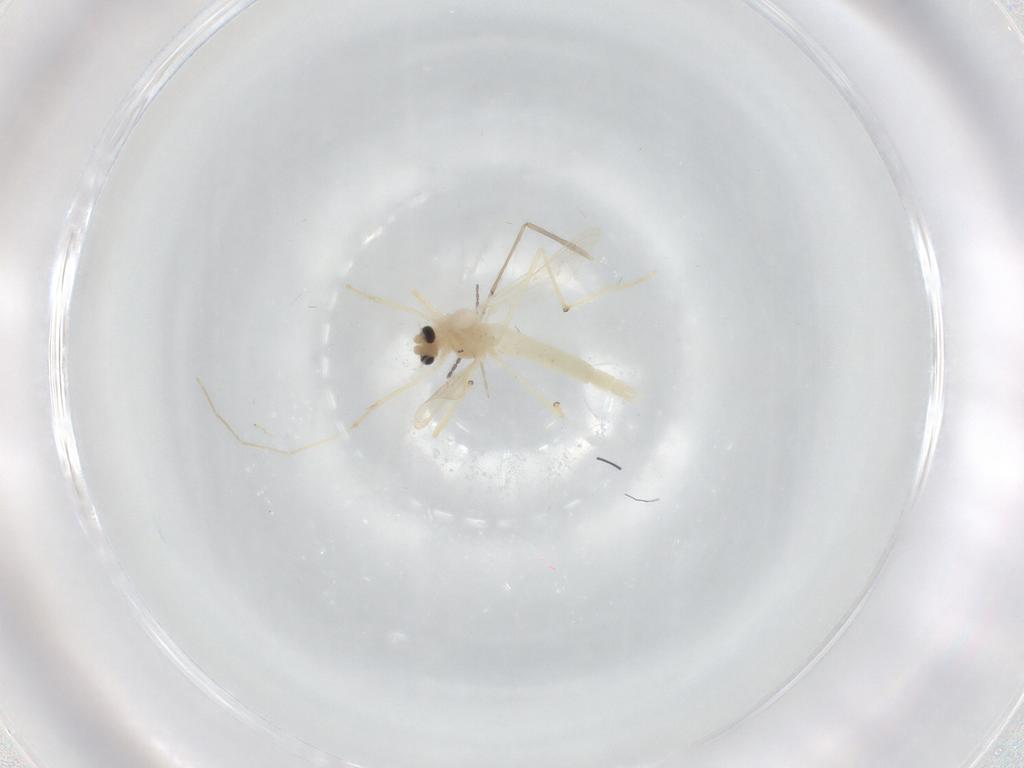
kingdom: Animalia
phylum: Arthropoda
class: Insecta
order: Diptera
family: Chironomidae
